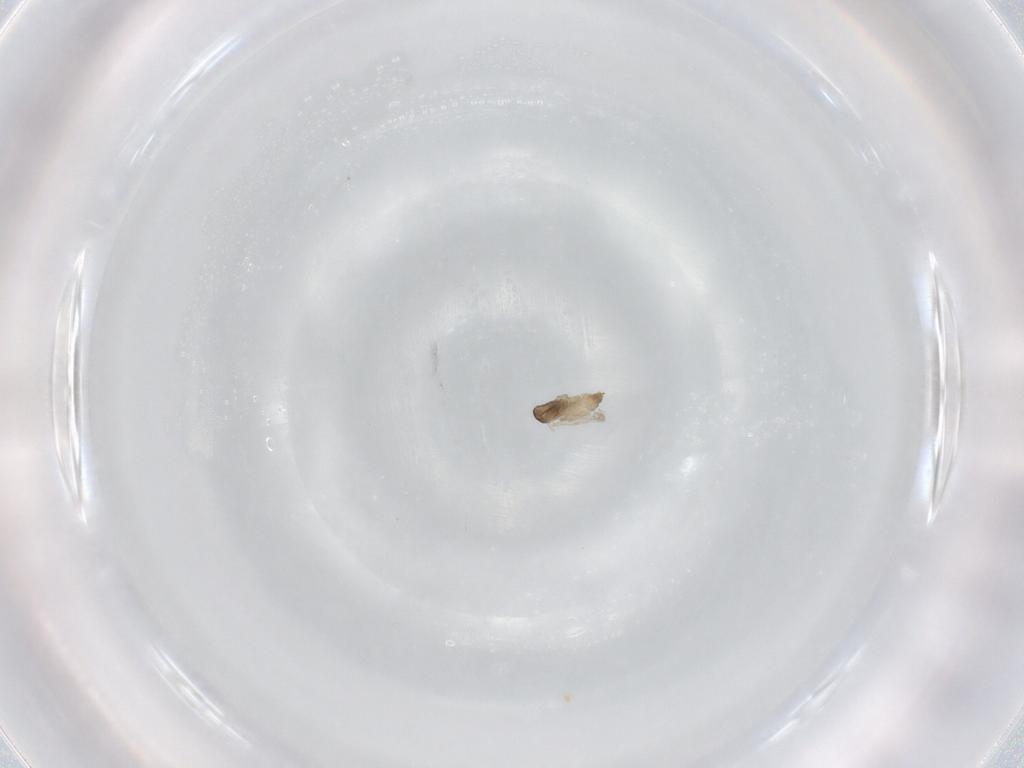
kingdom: Animalia
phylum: Arthropoda
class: Insecta
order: Diptera
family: Cecidomyiidae
